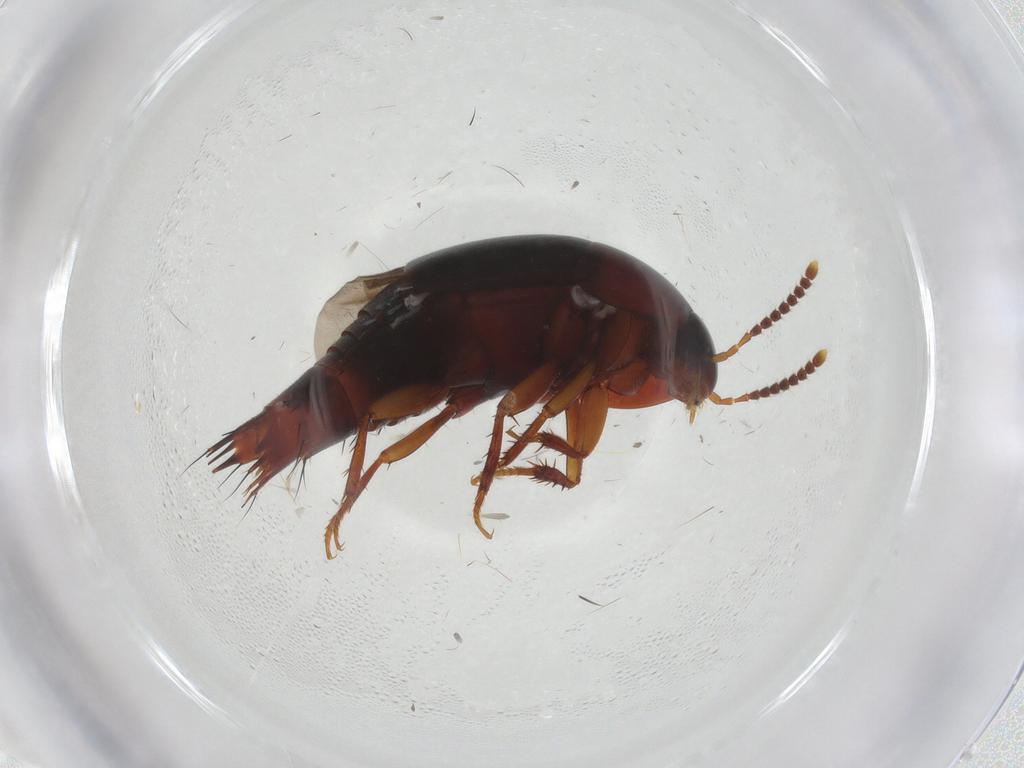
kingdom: Animalia
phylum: Arthropoda
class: Insecta
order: Coleoptera
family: Staphylinidae
